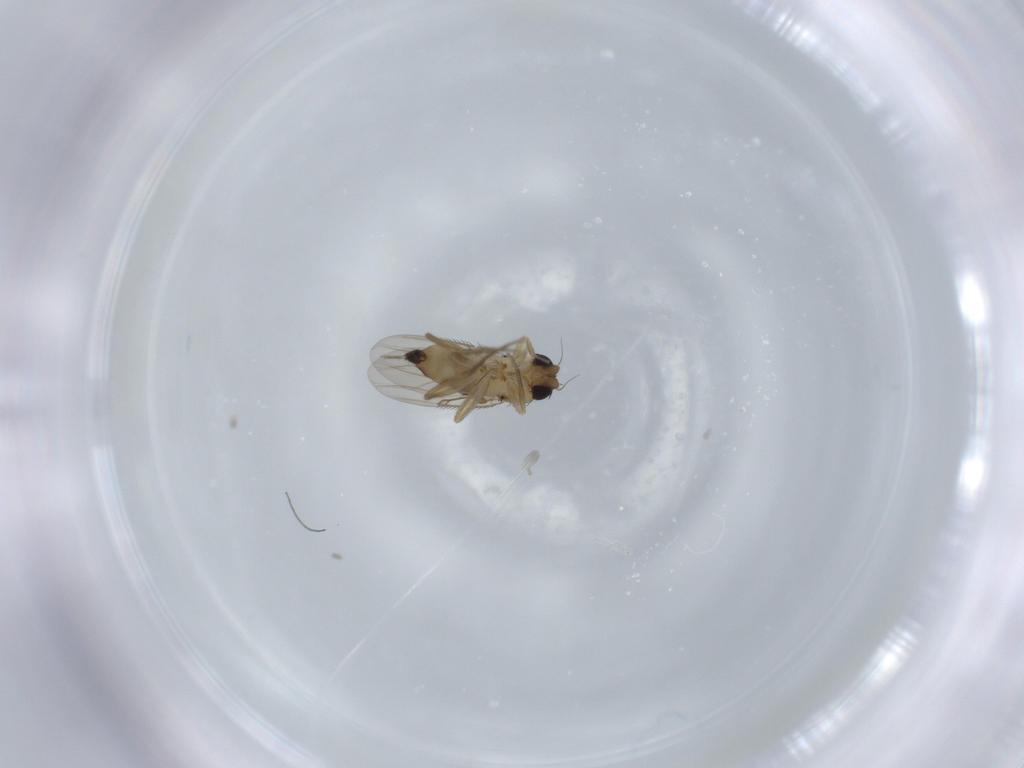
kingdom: Animalia
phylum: Arthropoda
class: Insecta
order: Diptera
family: Phoridae
